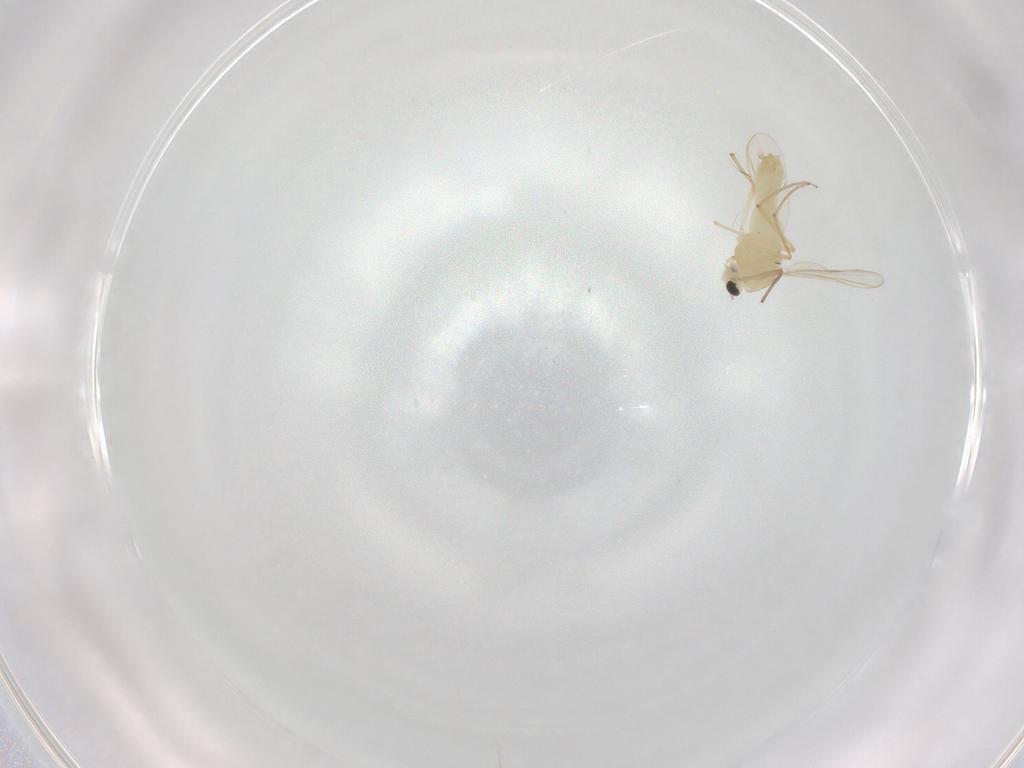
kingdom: Animalia
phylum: Arthropoda
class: Insecta
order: Diptera
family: Chironomidae
